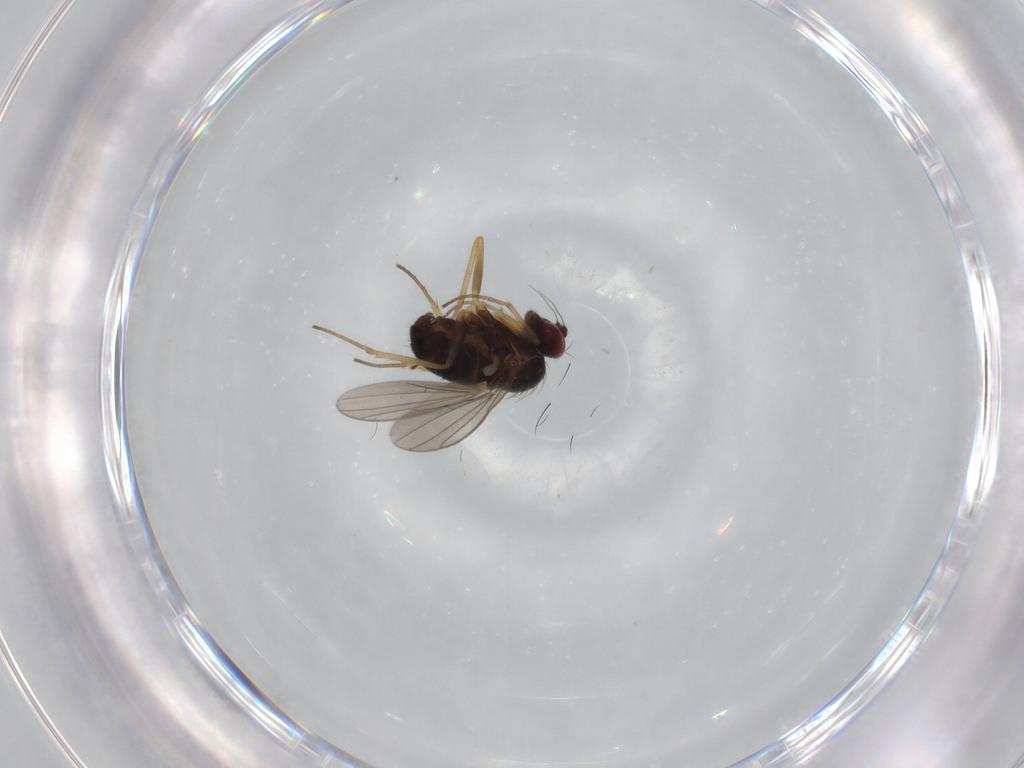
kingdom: Animalia
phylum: Arthropoda
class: Insecta
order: Diptera
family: Dolichopodidae
